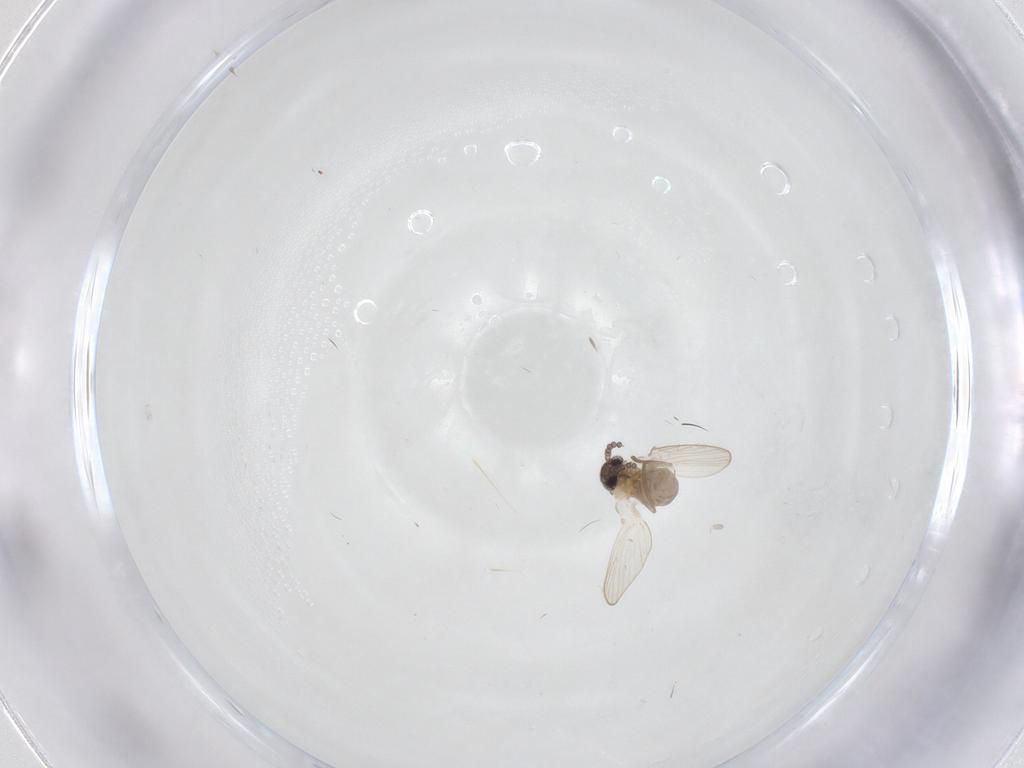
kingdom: Animalia
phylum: Arthropoda
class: Insecta
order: Diptera
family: Psychodidae
